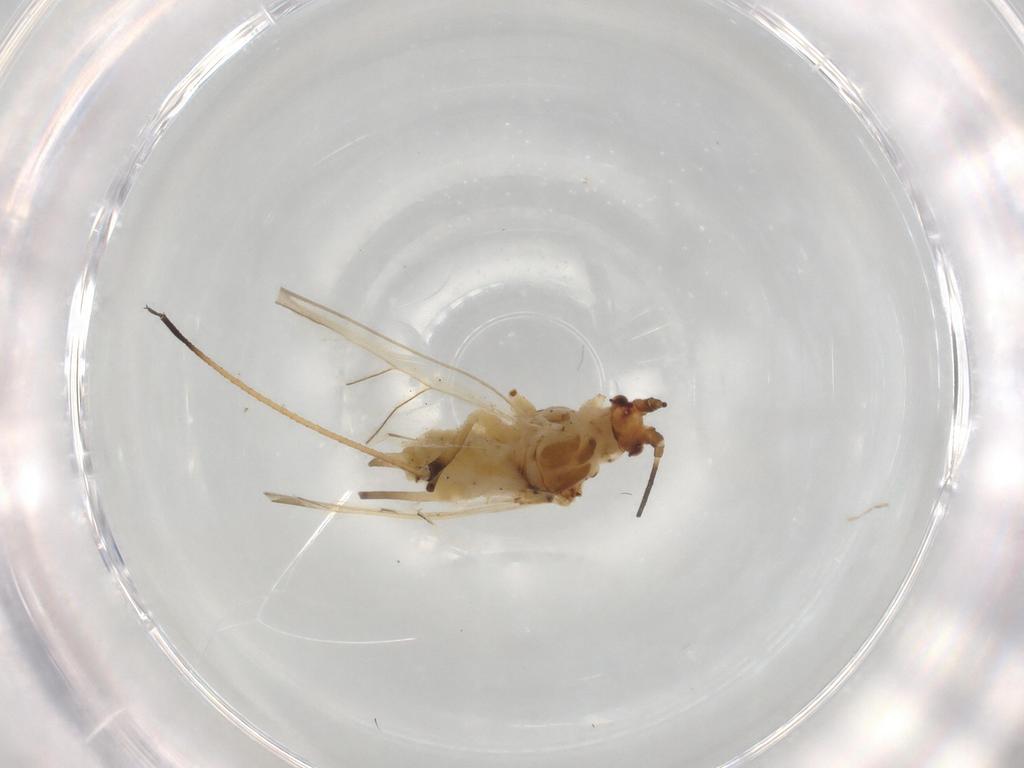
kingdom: Animalia
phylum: Arthropoda
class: Insecta
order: Hemiptera
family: Aphididae
